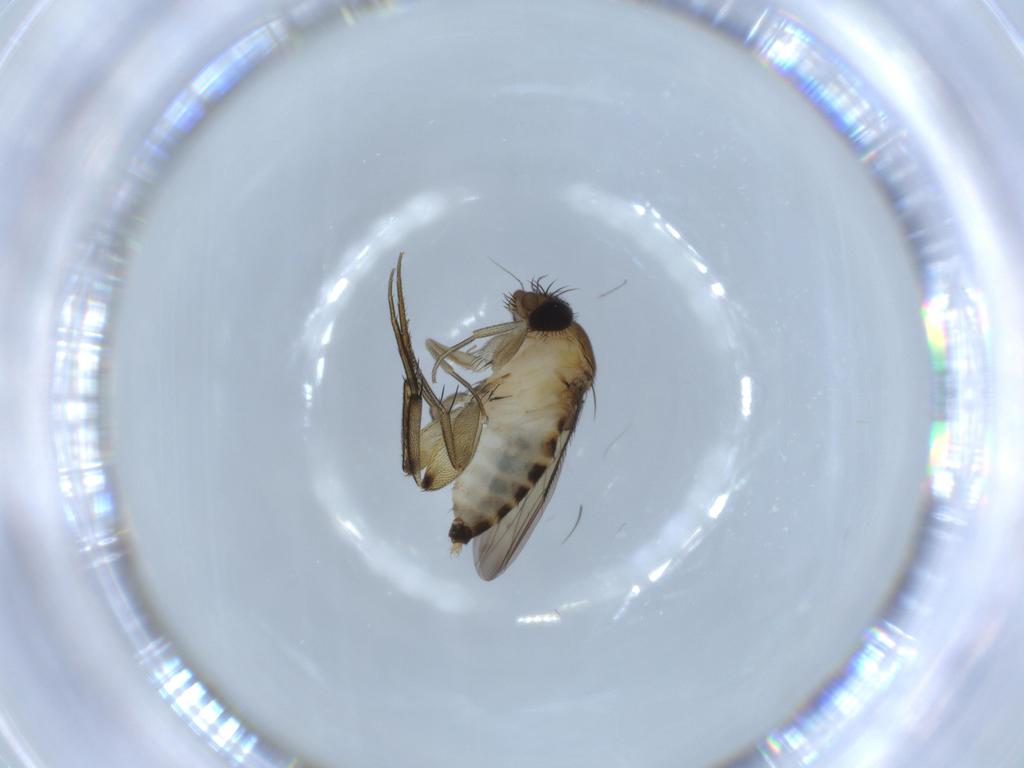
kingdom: Animalia
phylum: Arthropoda
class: Insecta
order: Diptera
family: Phoridae
